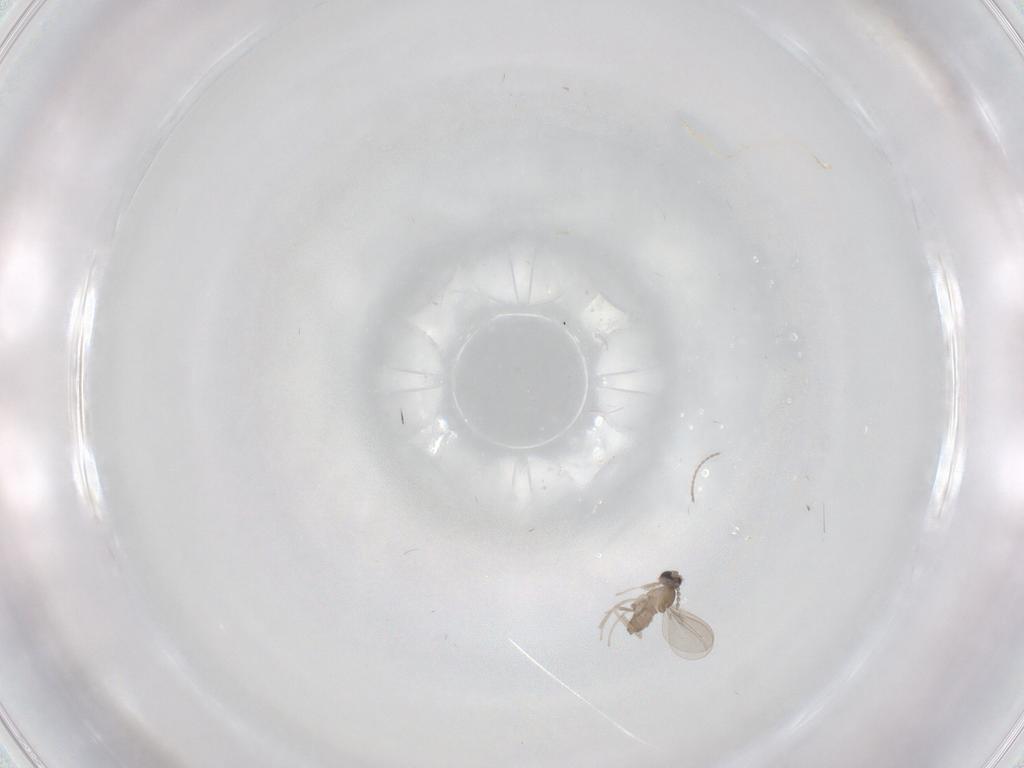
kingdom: Animalia
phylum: Arthropoda
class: Insecta
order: Diptera
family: Cecidomyiidae
